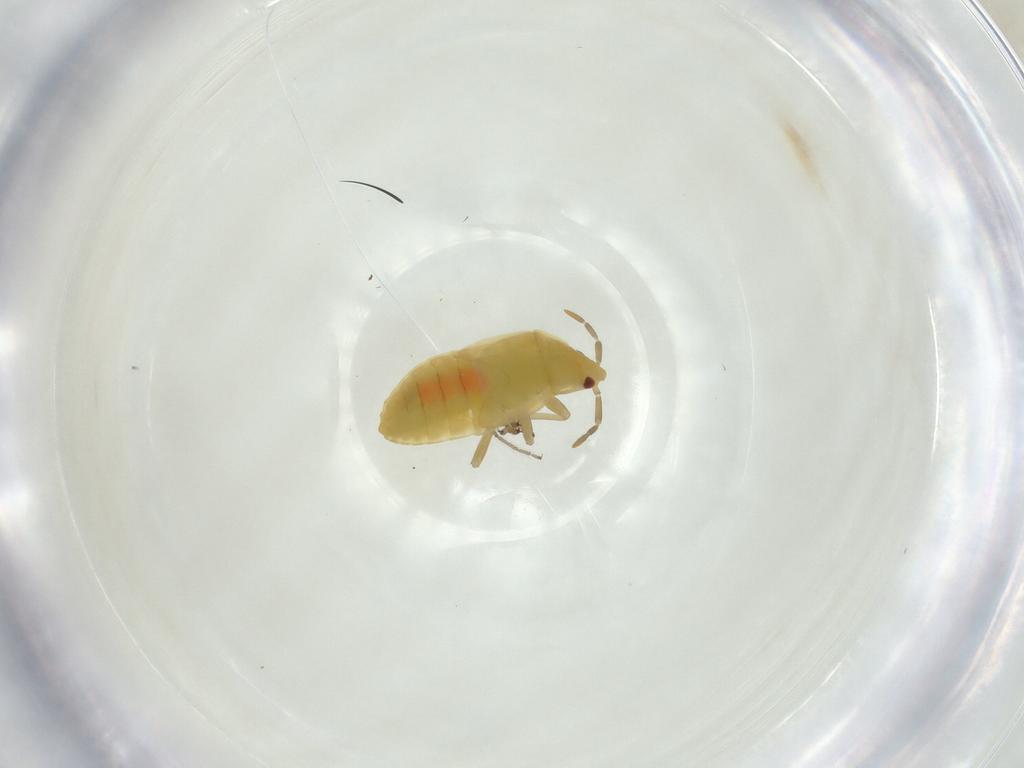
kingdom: Animalia
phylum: Arthropoda
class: Insecta
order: Hemiptera
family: Anthocoridae
